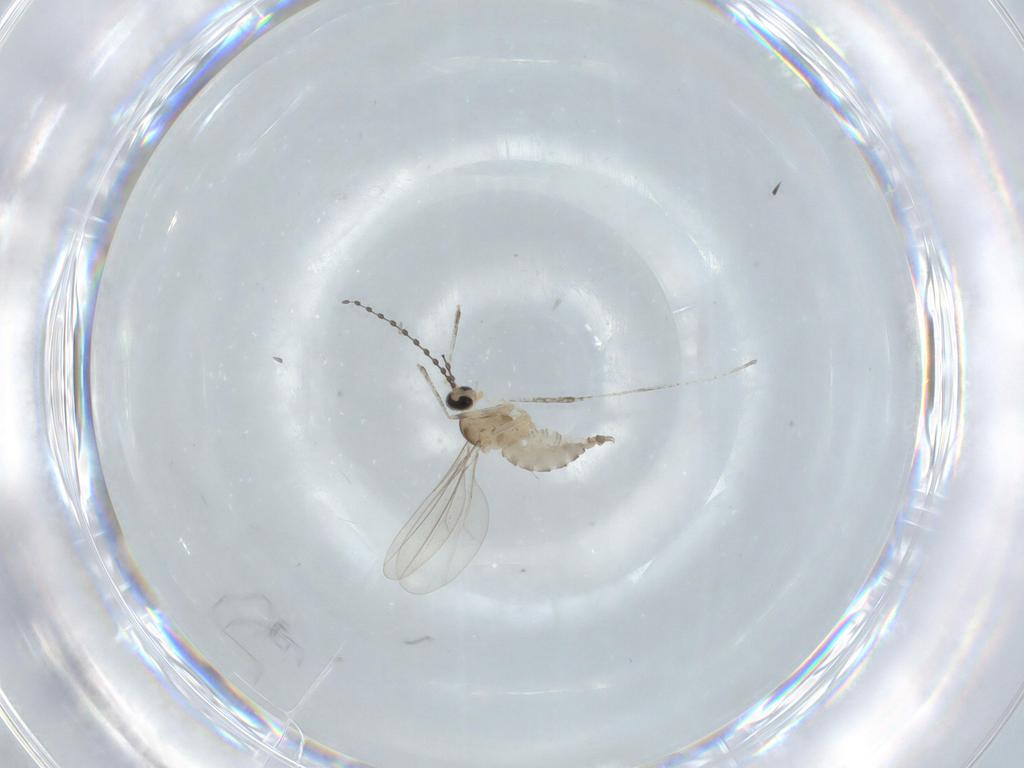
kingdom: Animalia
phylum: Arthropoda
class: Insecta
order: Diptera
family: Cecidomyiidae
